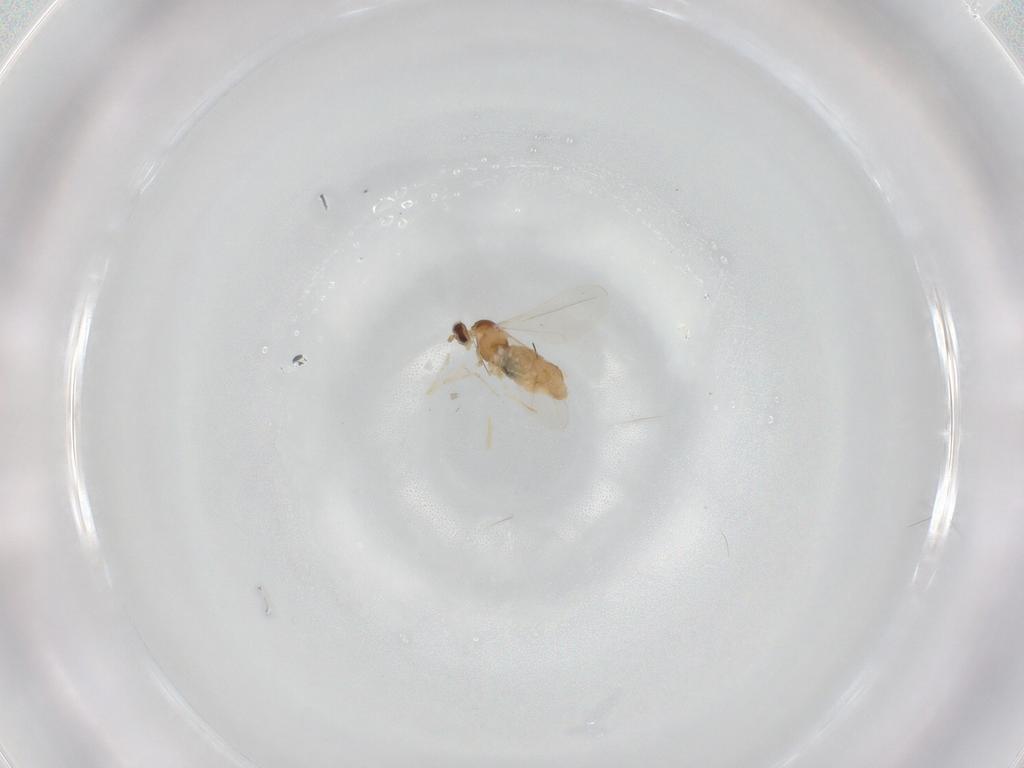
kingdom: Animalia
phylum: Arthropoda
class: Insecta
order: Diptera
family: Cecidomyiidae
